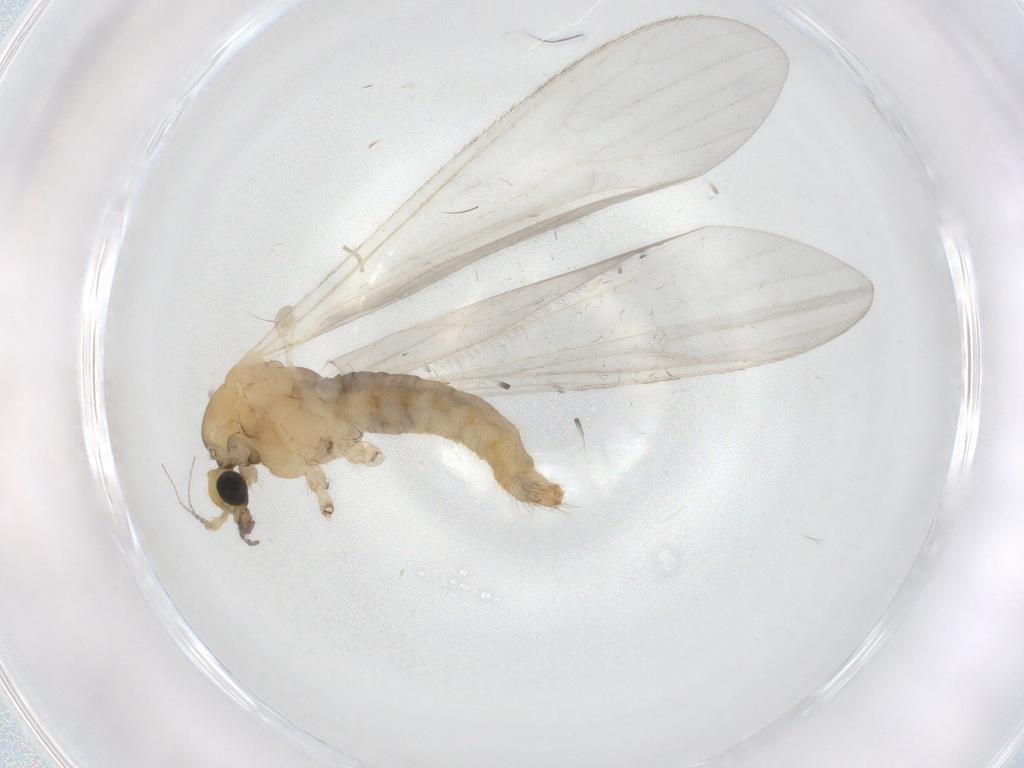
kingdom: Animalia
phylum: Arthropoda
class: Insecta
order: Diptera
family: Limoniidae
